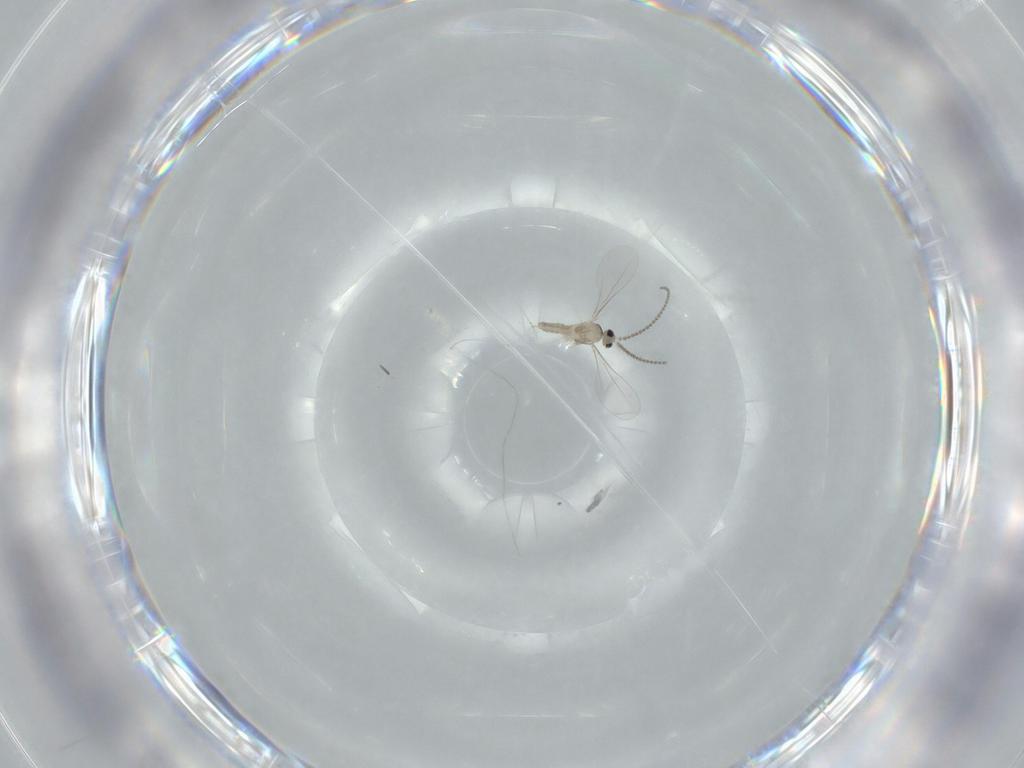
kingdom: Animalia
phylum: Arthropoda
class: Insecta
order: Diptera
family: Cecidomyiidae
